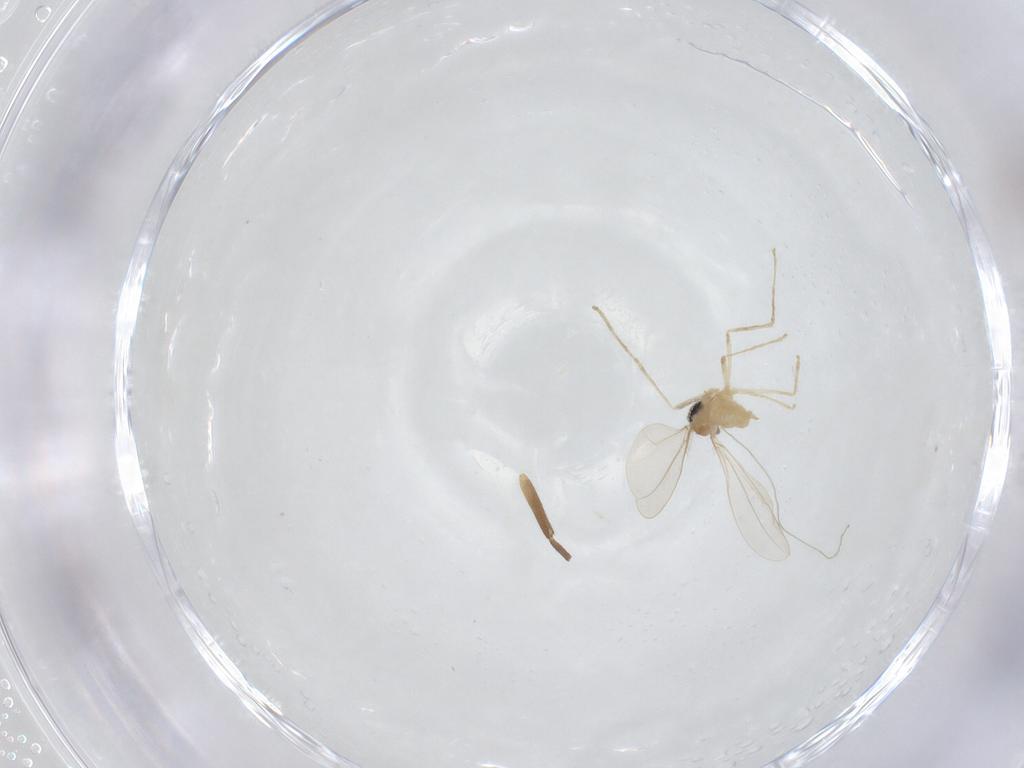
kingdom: Animalia
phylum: Arthropoda
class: Insecta
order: Diptera
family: Cecidomyiidae
